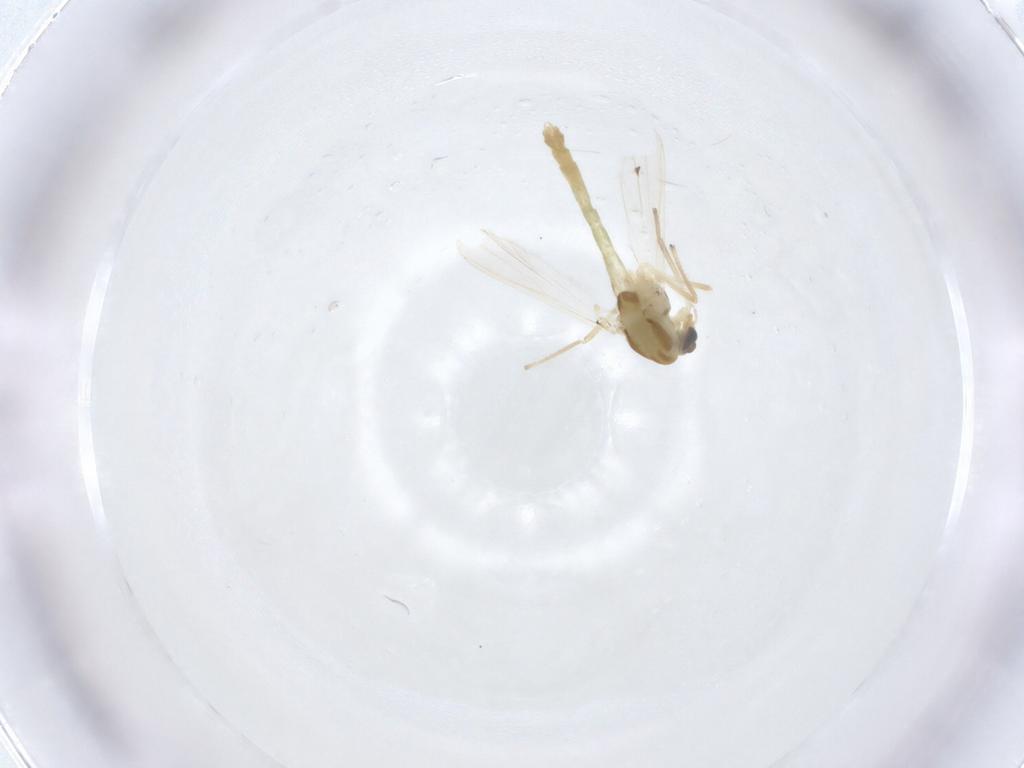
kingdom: Animalia
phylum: Arthropoda
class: Insecta
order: Diptera
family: Chironomidae
